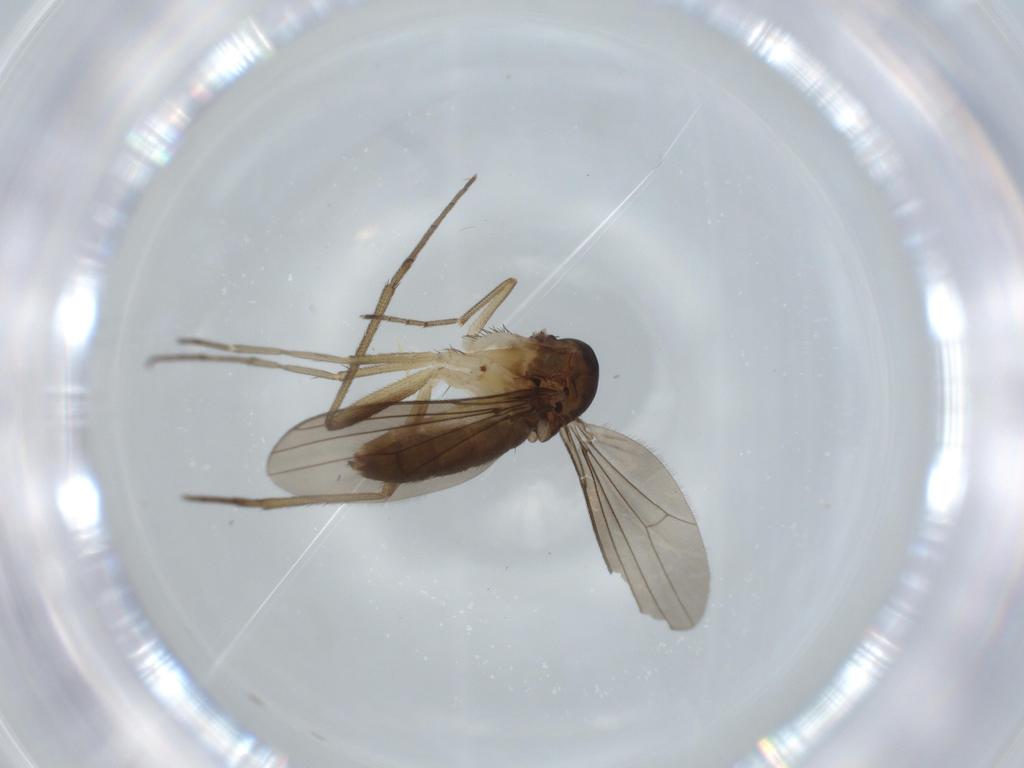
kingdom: Animalia
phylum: Arthropoda
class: Insecta
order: Diptera
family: Dolichopodidae
